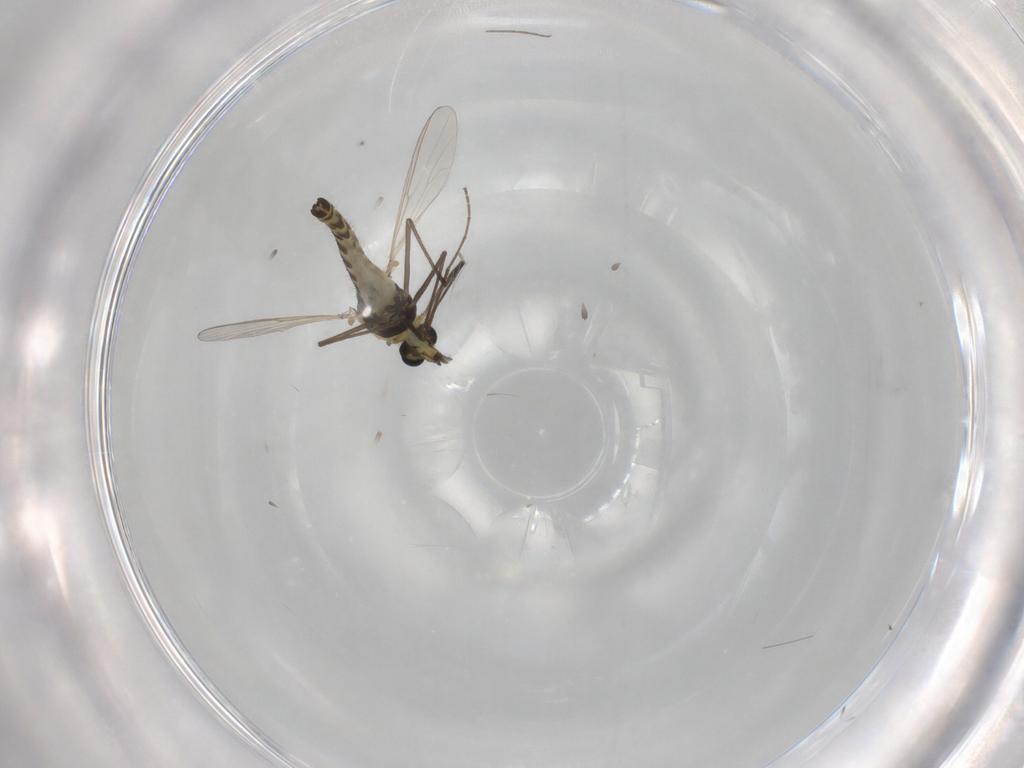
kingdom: Animalia
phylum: Arthropoda
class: Insecta
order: Diptera
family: Chironomidae
